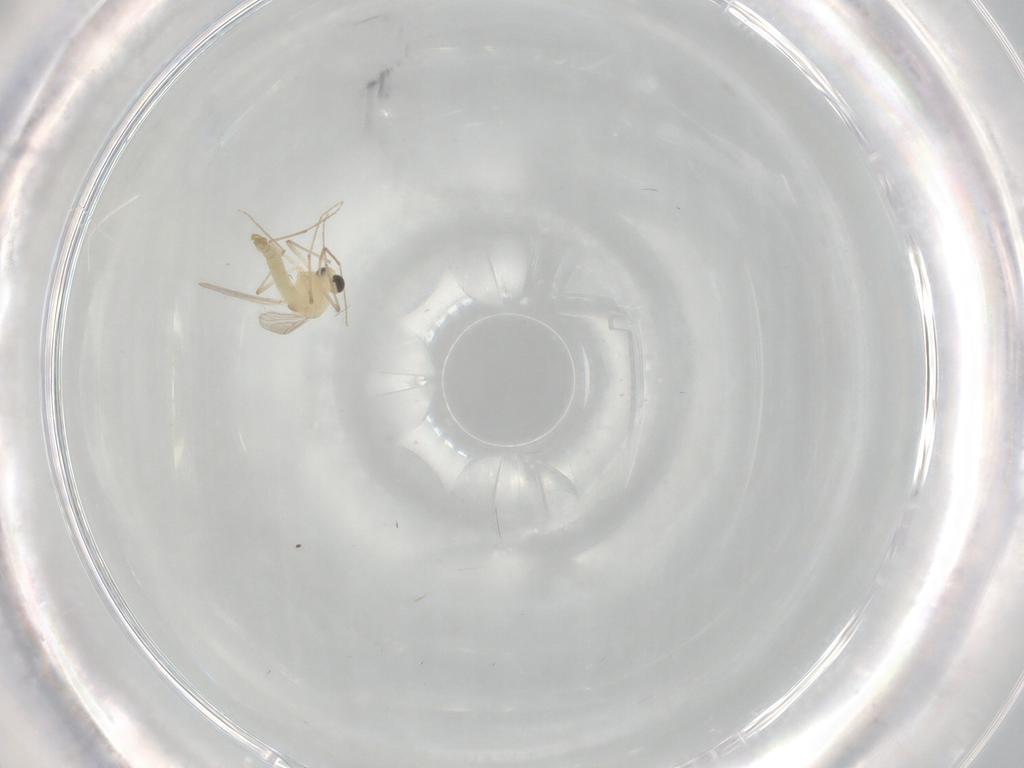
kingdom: Animalia
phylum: Arthropoda
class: Insecta
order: Diptera
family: Chironomidae
